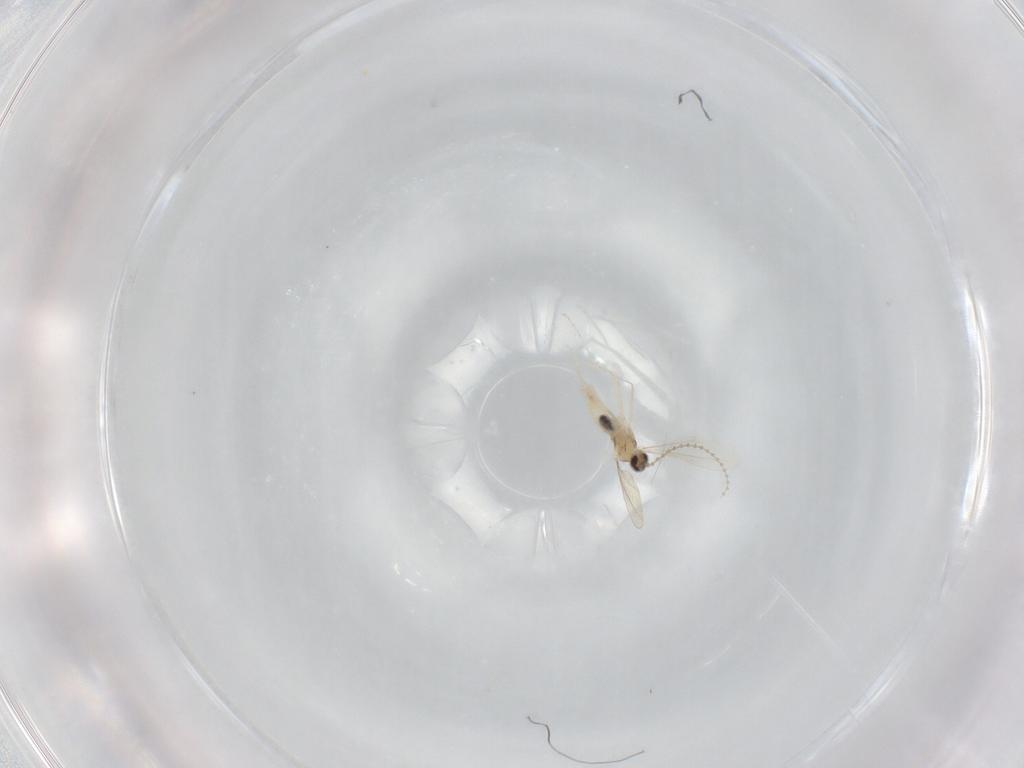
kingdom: Animalia
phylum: Arthropoda
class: Insecta
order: Diptera
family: Cecidomyiidae
